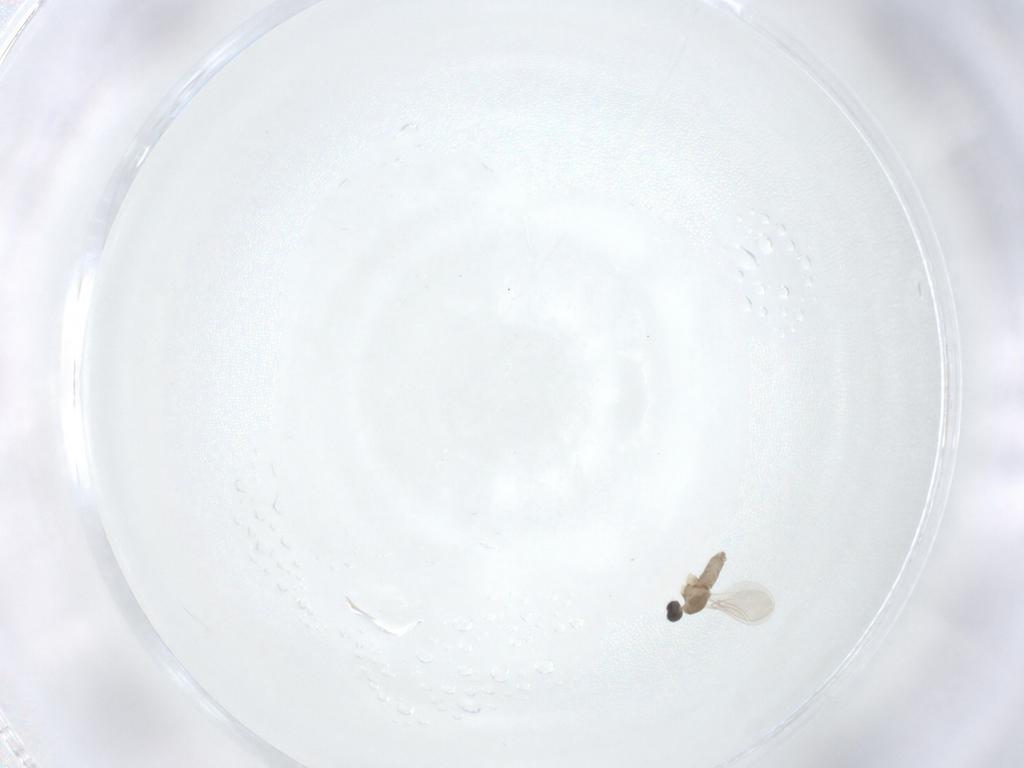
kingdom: Animalia
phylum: Arthropoda
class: Insecta
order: Diptera
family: Cecidomyiidae
